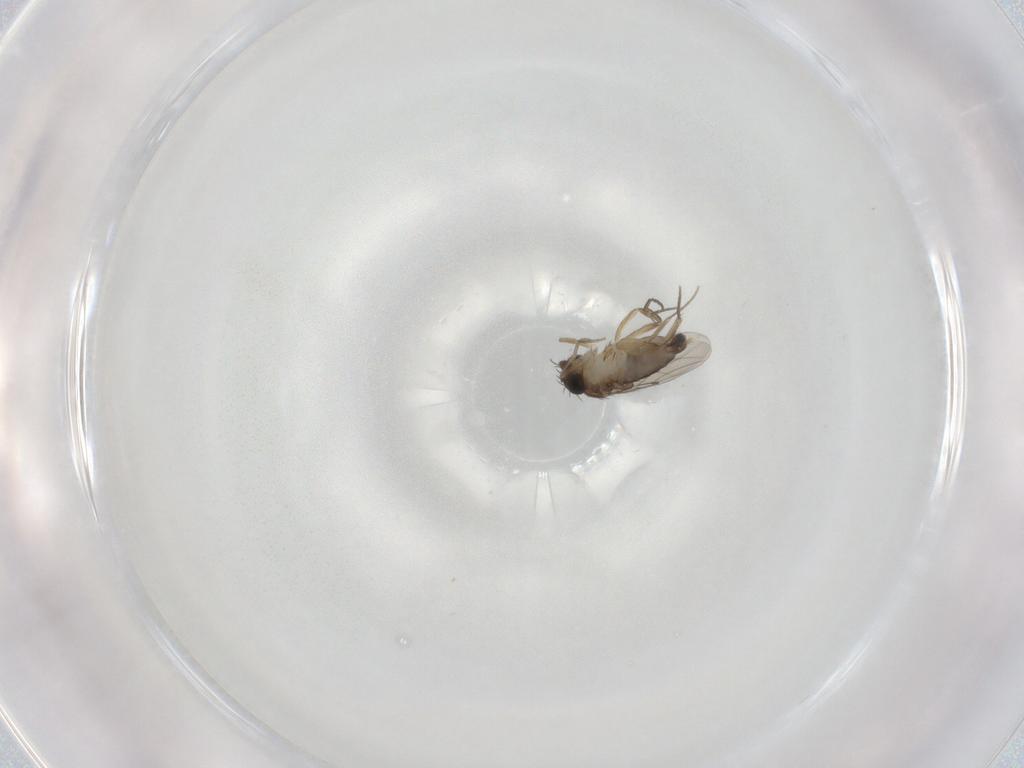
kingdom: Animalia
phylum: Arthropoda
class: Insecta
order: Diptera
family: Phoridae
